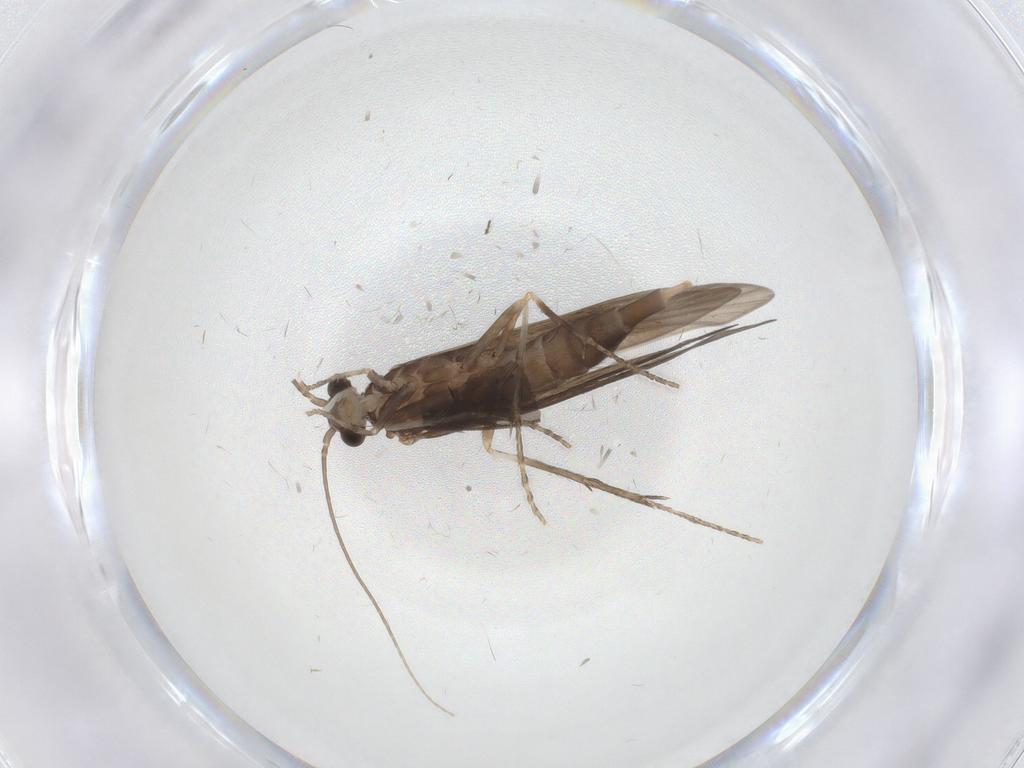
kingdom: Animalia
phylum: Arthropoda
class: Insecta
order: Trichoptera
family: Xiphocentronidae
